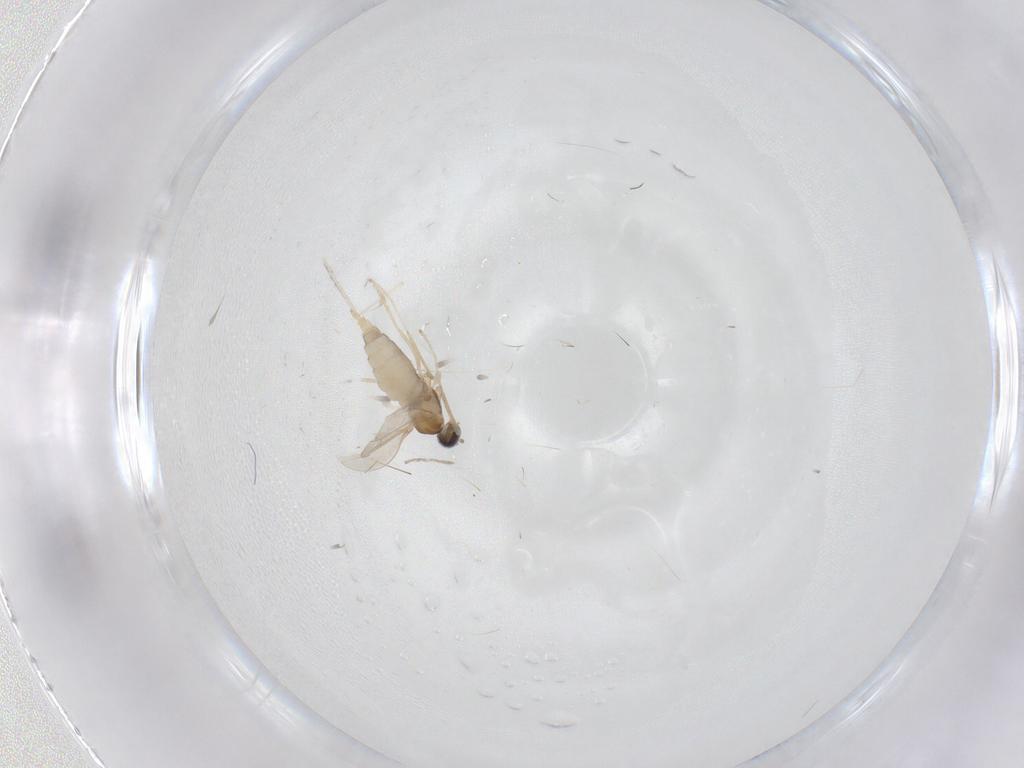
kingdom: Animalia
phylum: Arthropoda
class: Insecta
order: Diptera
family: Cecidomyiidae
